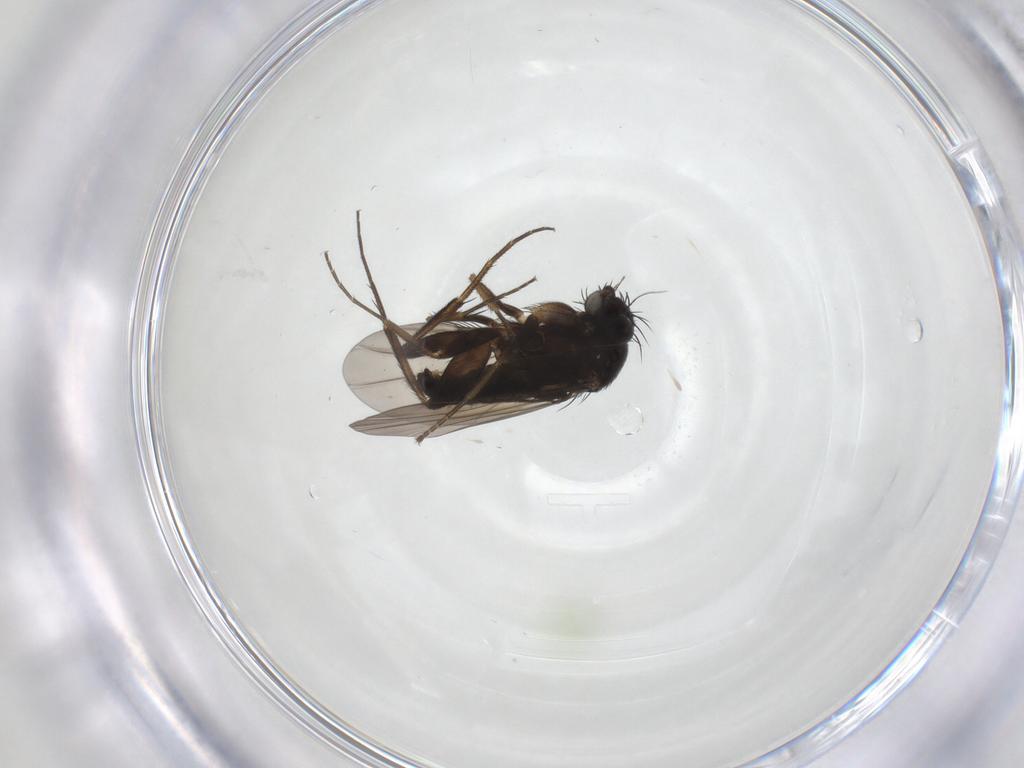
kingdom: Animalia
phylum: Arthropoda
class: Insecta
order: Diptera
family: Phoridae
